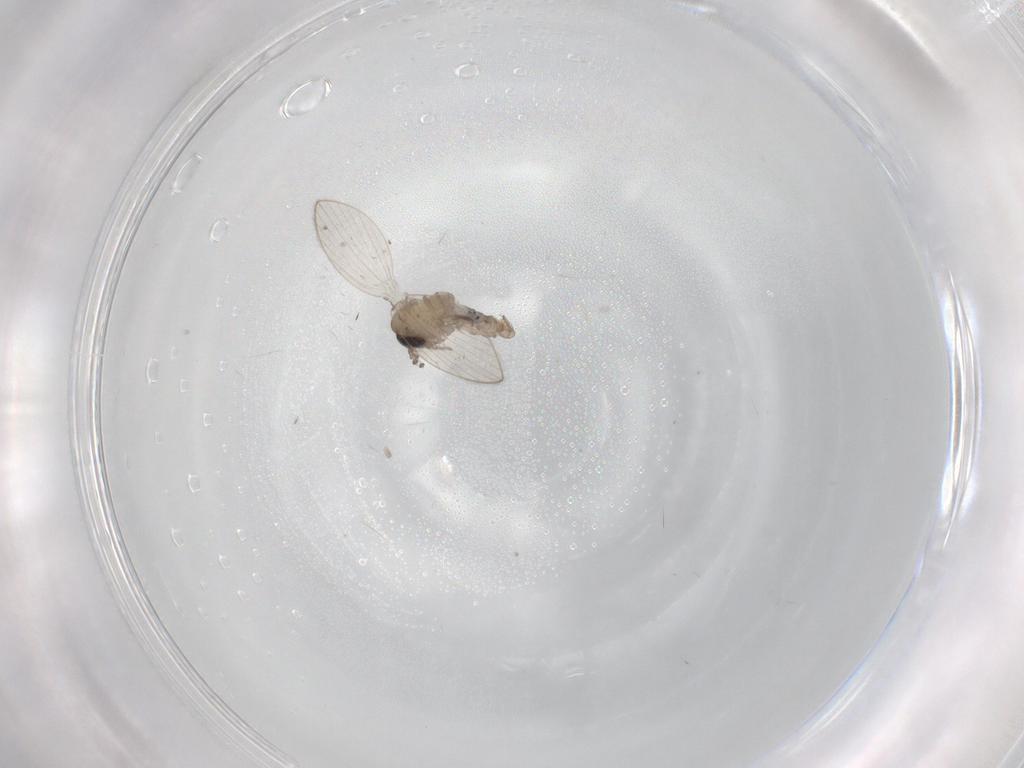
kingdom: Animalia
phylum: Arthropoda
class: Insecta
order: Diptera
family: Psychodidae
